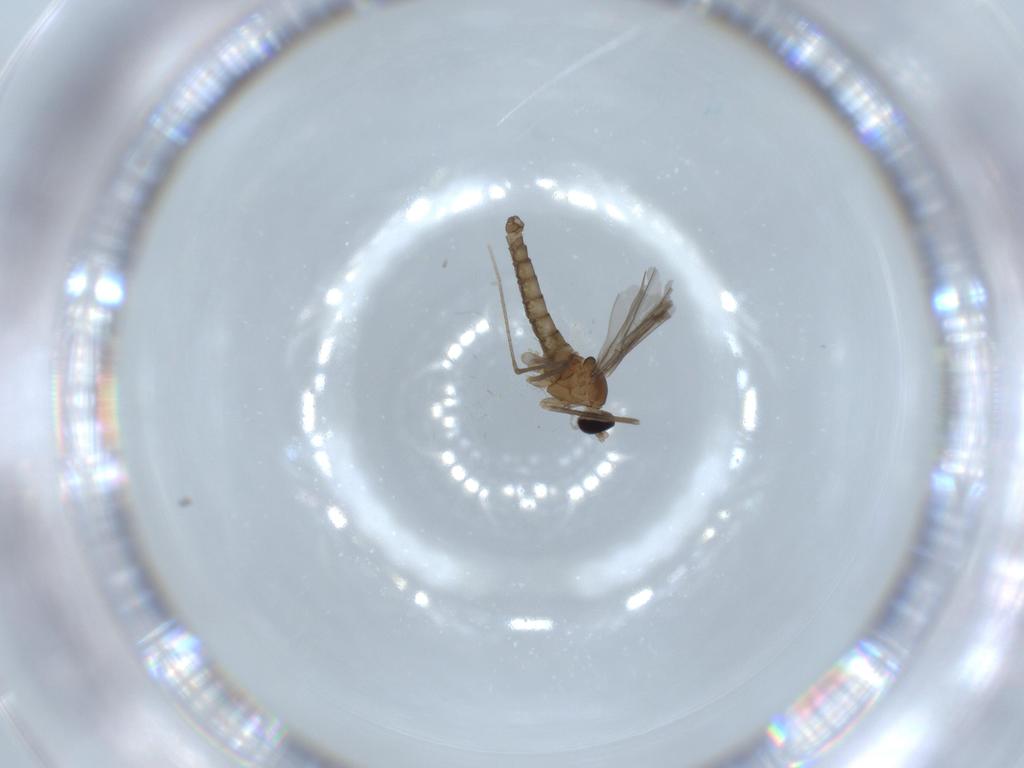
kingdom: Animalia
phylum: Arthropoda
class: Insecta
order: Diptera
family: Cecidomyiidae
